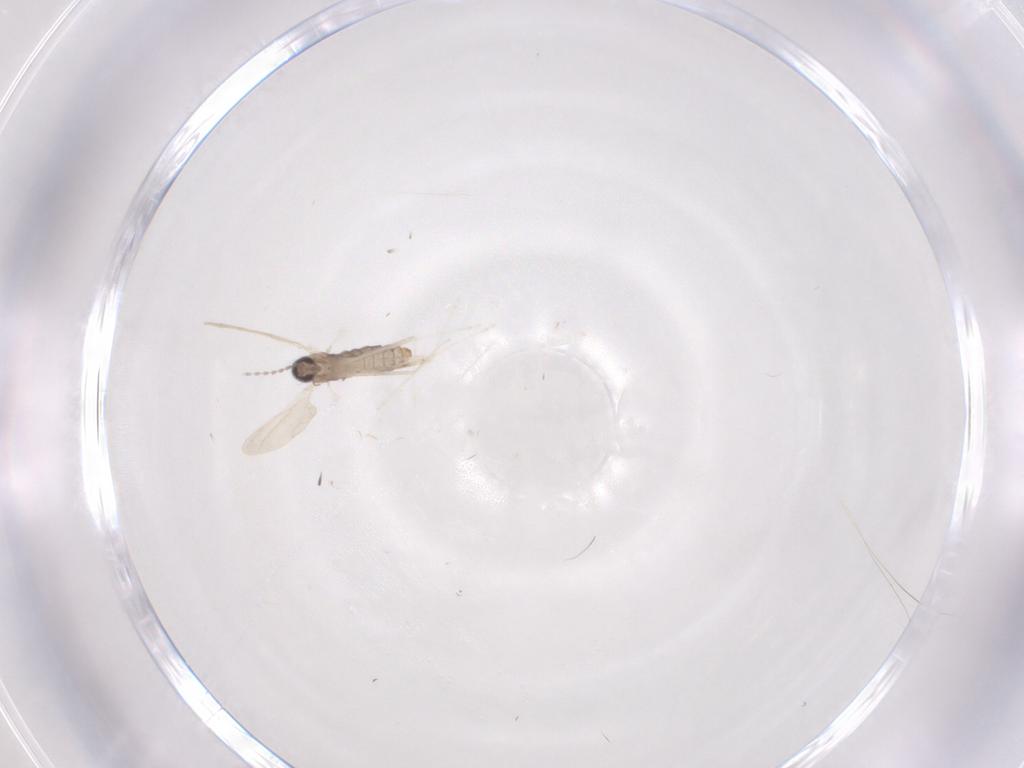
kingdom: Animalia
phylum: Arthropoda
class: Insecta
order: Diptera
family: Cecidomyiidae
